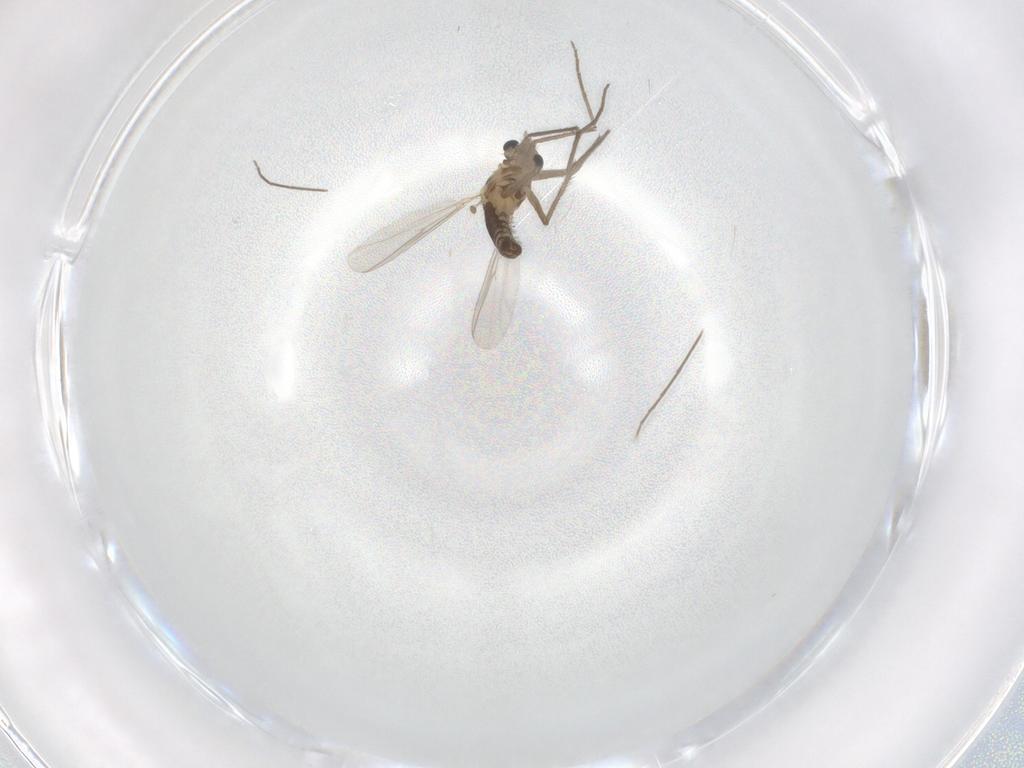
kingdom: Animalia
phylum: Arthropoda
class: Insecta
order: Diptera
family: Chironomidae
